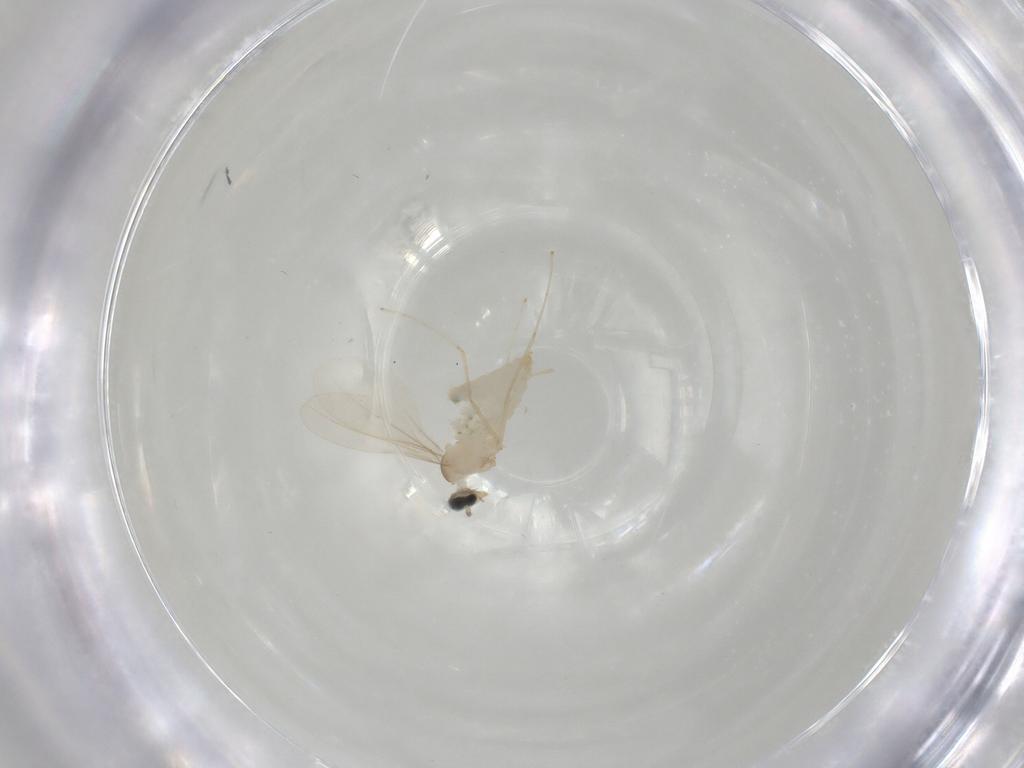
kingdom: Animalia
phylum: Arthropoda
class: Insecta
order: Diptera
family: Cecidomyiidae
